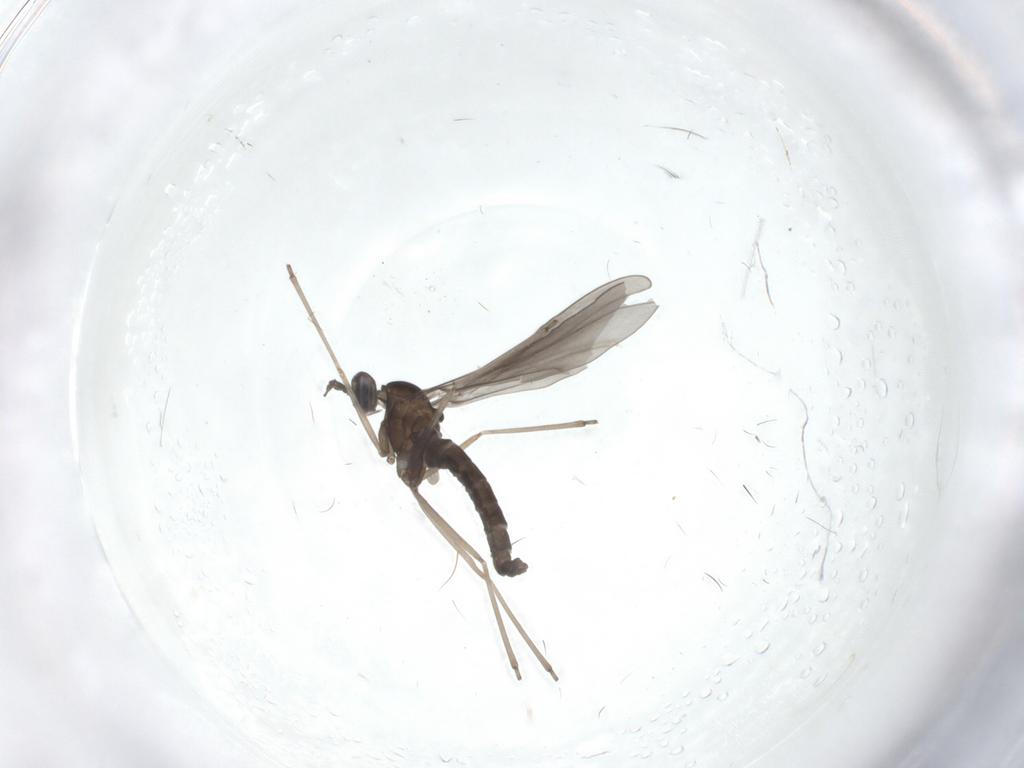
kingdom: Animalia
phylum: Arthropoda
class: Insecta
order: Diptera
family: Cecidomyiidae
